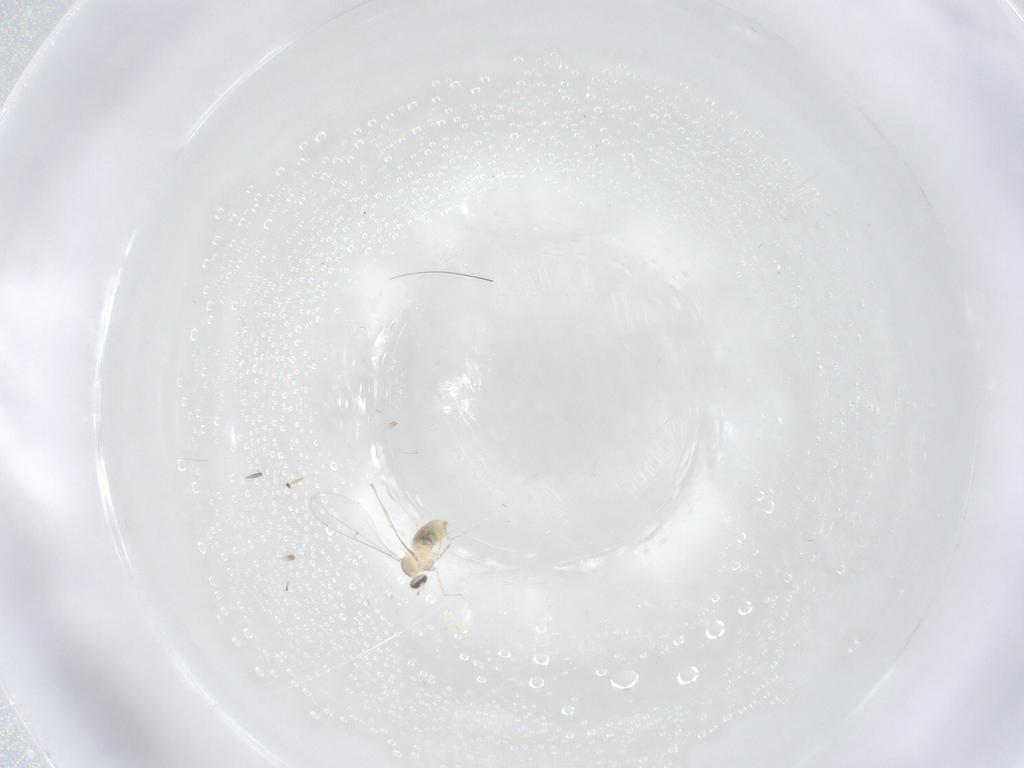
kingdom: Animalia
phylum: Arthropoda
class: Insecta
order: Diptera
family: Cecidomyiidae
